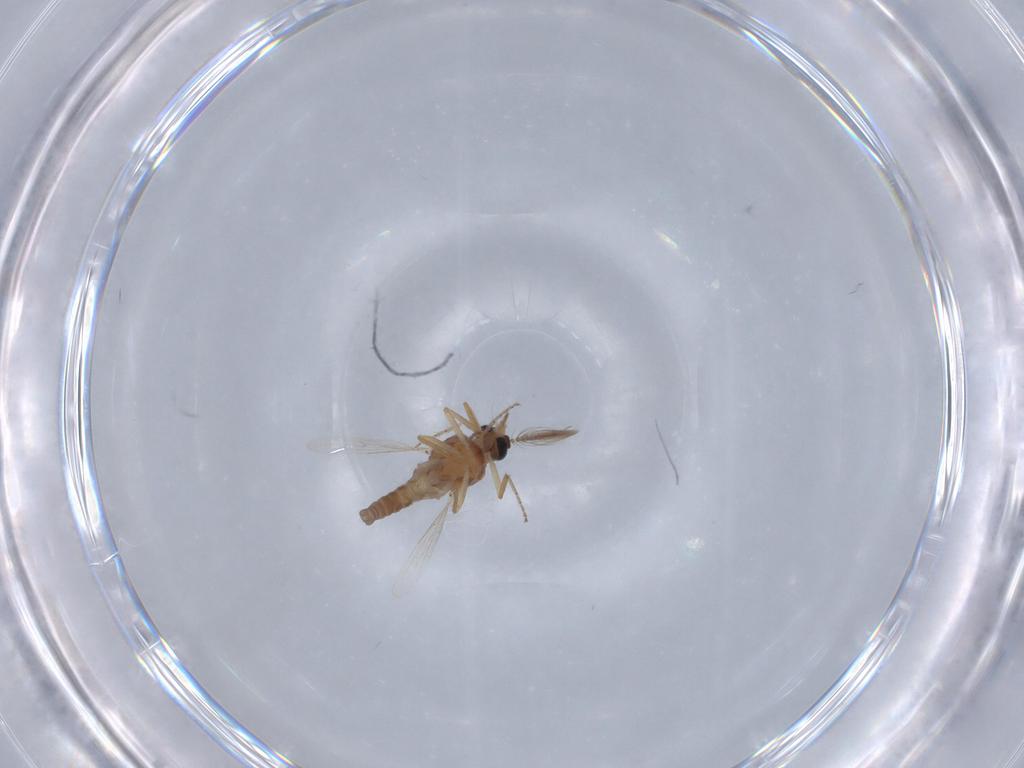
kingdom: Animalia
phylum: Arthropoda
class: Insecta
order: Diptera
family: Ceratopogonidae
